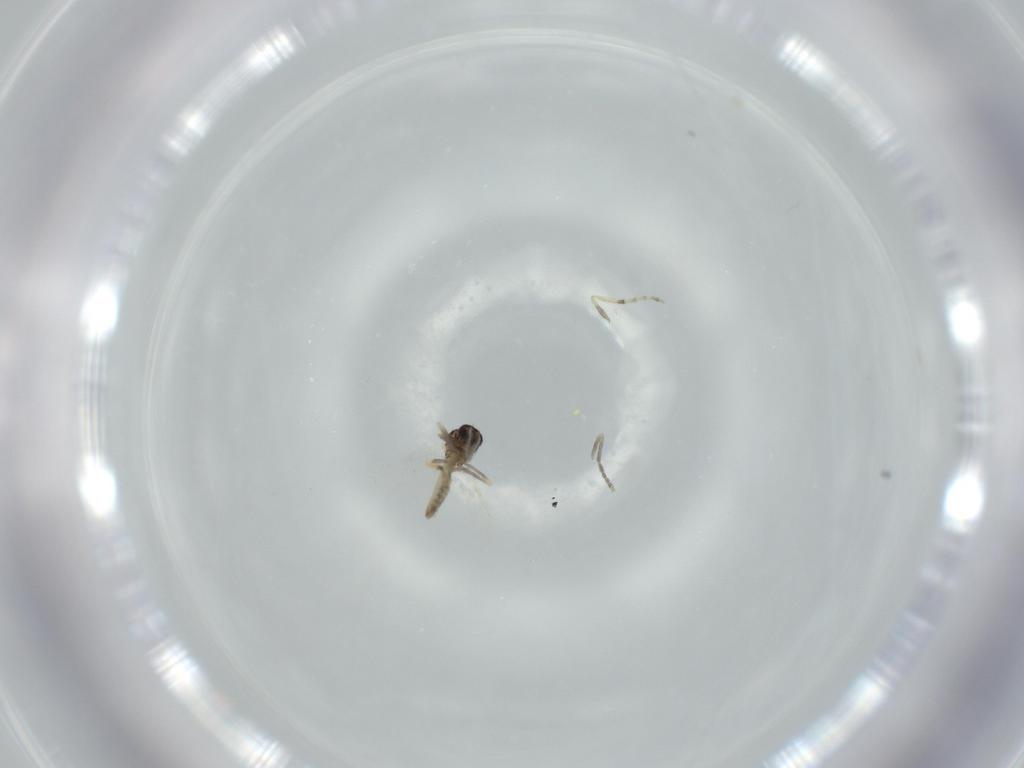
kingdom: Animalia
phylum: Arthropoda
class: Insecta
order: Diptera
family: Ceratopogonidae
